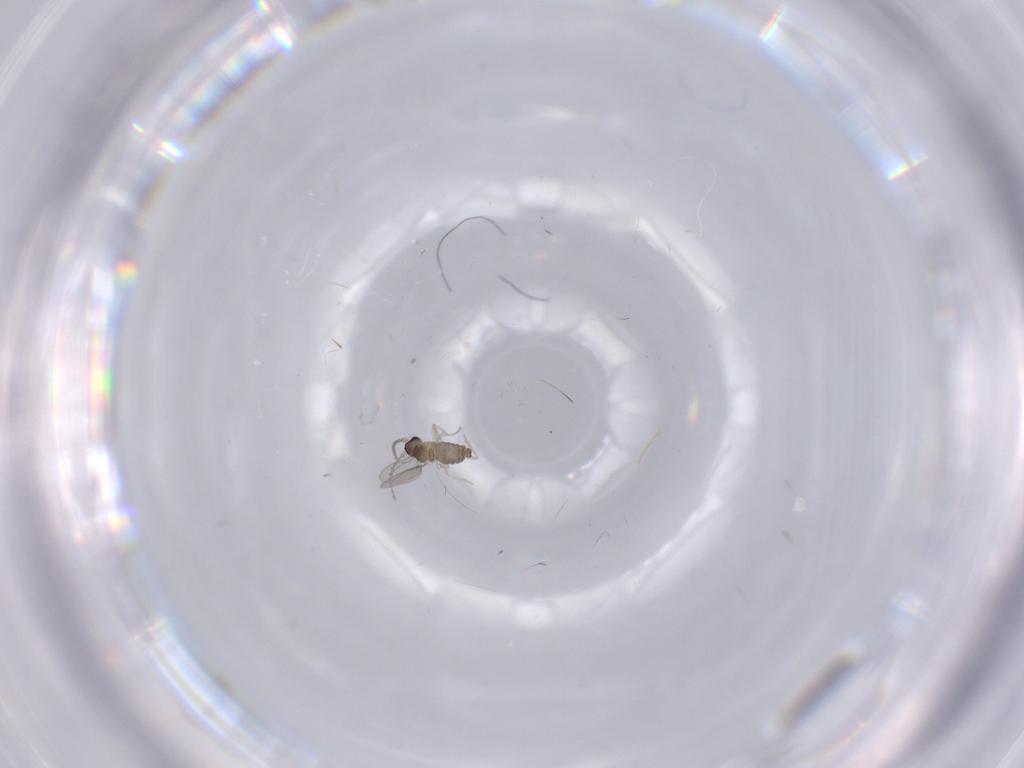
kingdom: Animalia
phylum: Arthropoda
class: Insecta
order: Diptera
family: Cecidomyiidae
